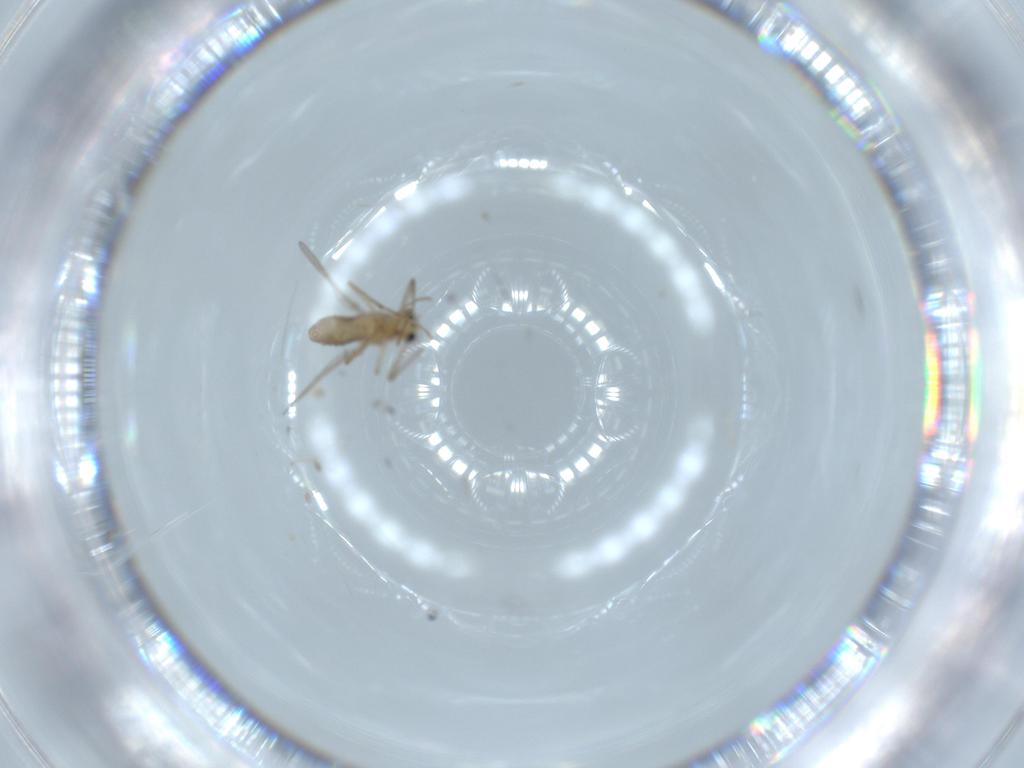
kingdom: Animalia
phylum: Arthropoda
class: Insecta
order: Diptera
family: Chironomidae
